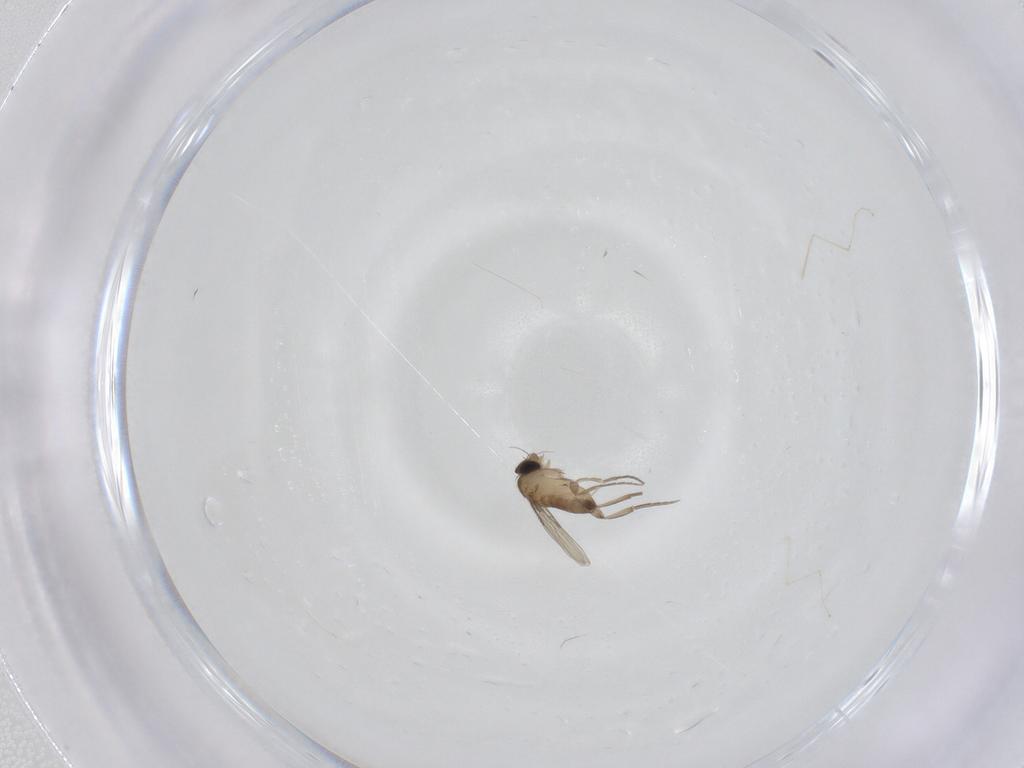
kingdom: Animalia
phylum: Arthropoda
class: Insecta
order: Diptera
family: Phoridae
